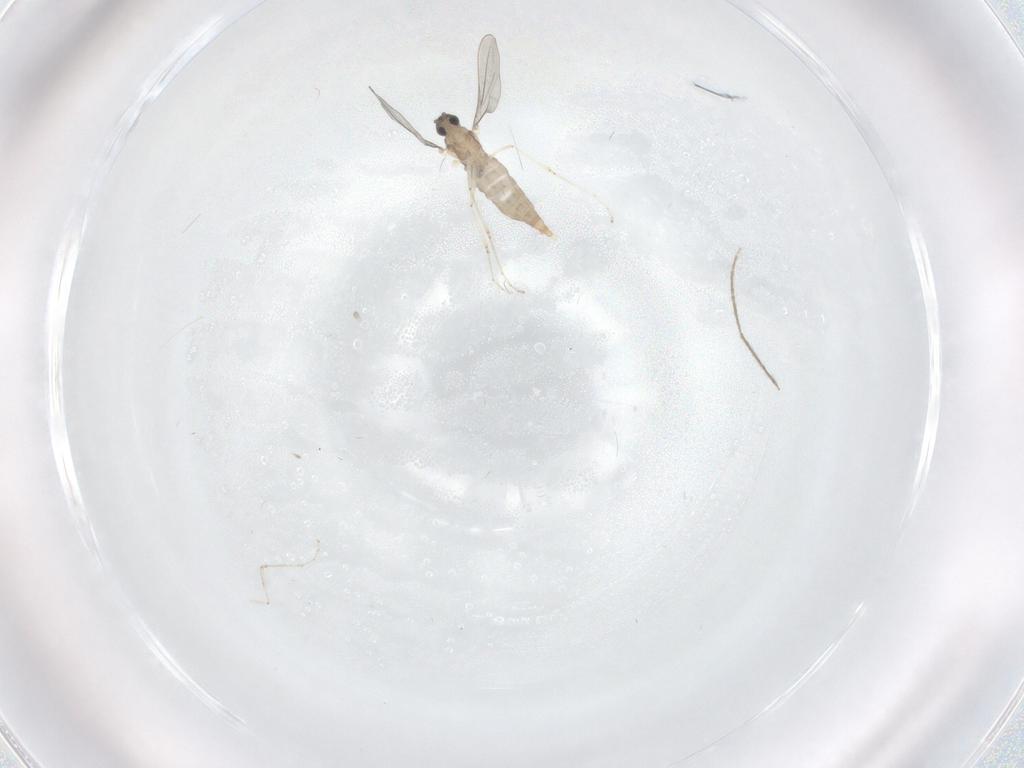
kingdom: Animalia
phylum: Arthropoda
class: Insecta
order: Diptera
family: Chironomidae
